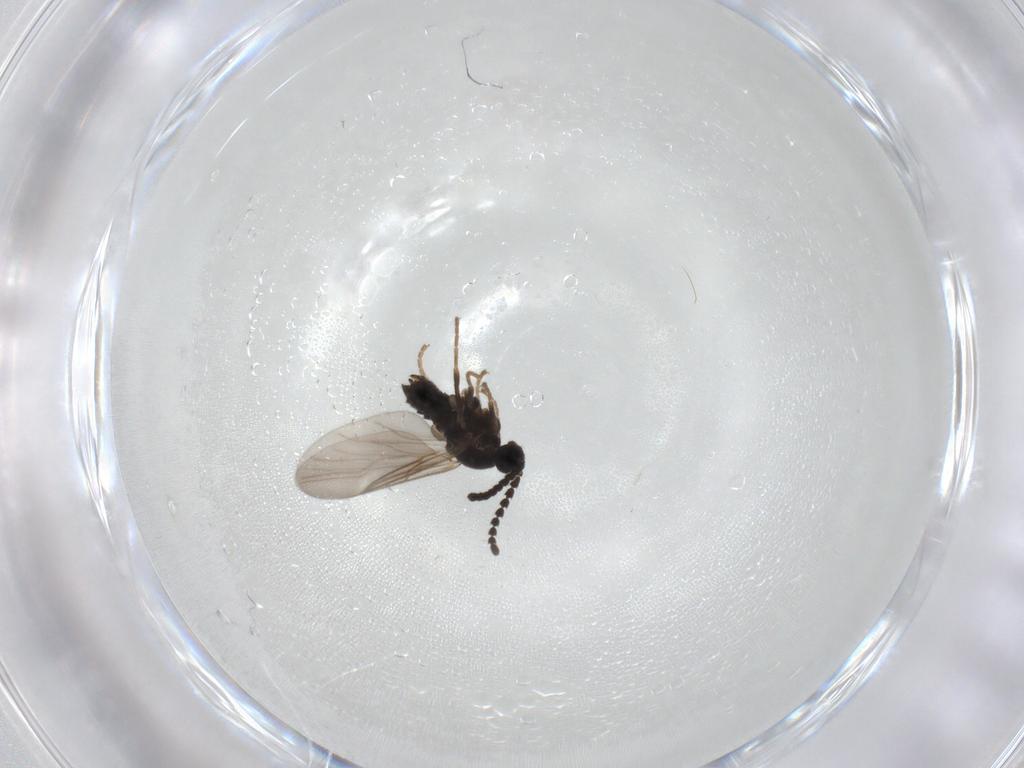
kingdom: Animalia
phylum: Arthropoda
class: Insecta
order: Diptera
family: Scatopsidae
